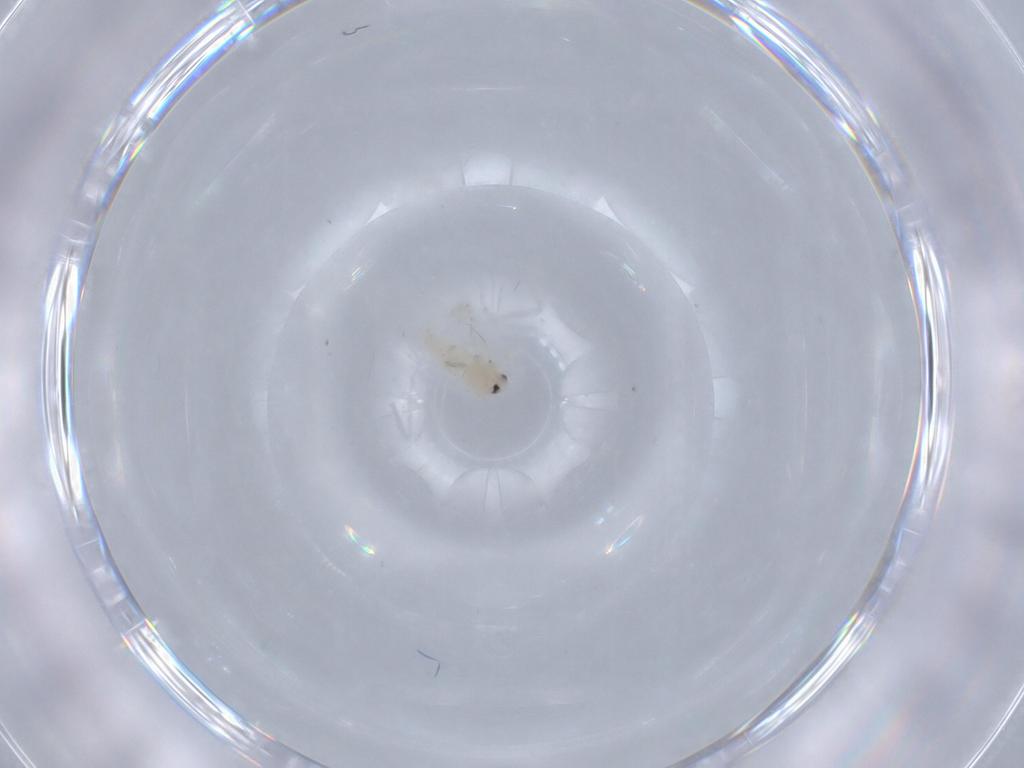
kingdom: Animalia
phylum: Arthropoda
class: Insecta
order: Hemiptera
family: Aleyrodidae
